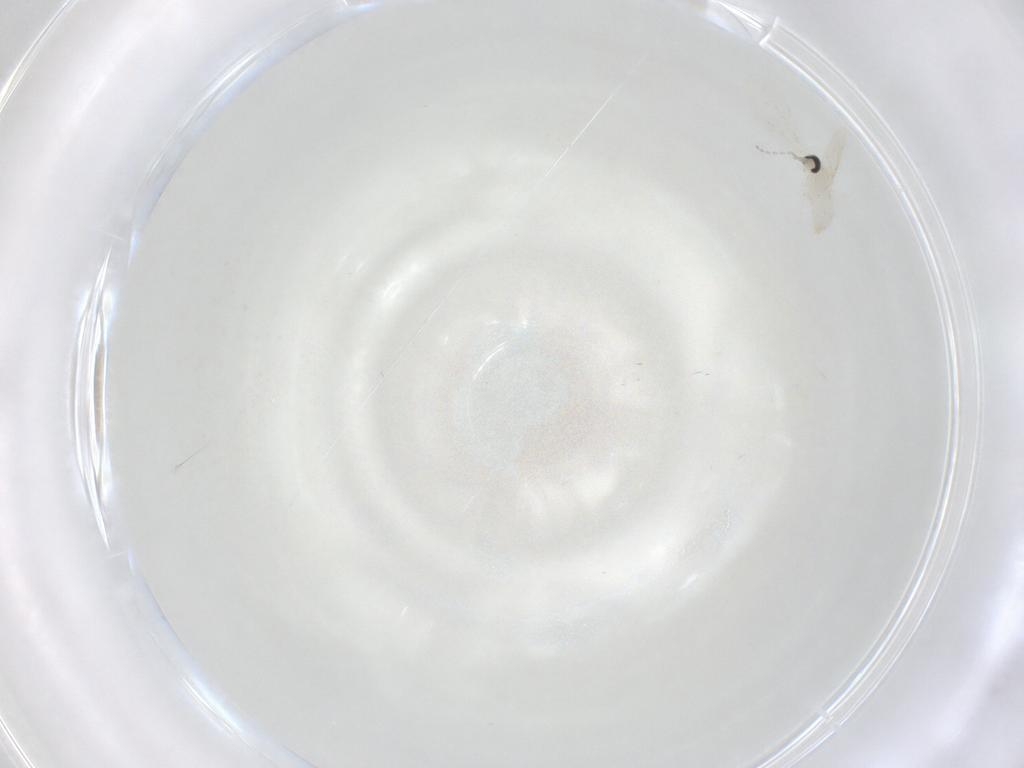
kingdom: Animalia
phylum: Arthropoda
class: Insecta
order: Diptera
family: Cecidomyiidae
